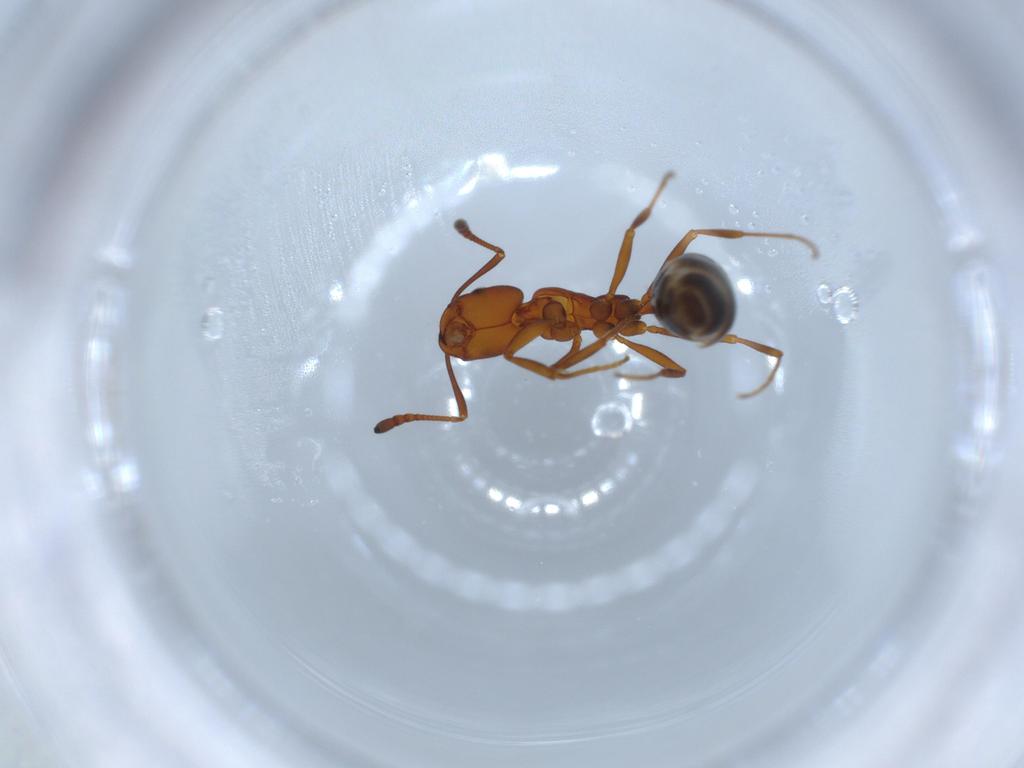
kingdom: Animalia
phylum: Arthropoda
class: Insecta
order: Hymenoptera
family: Formicidae
